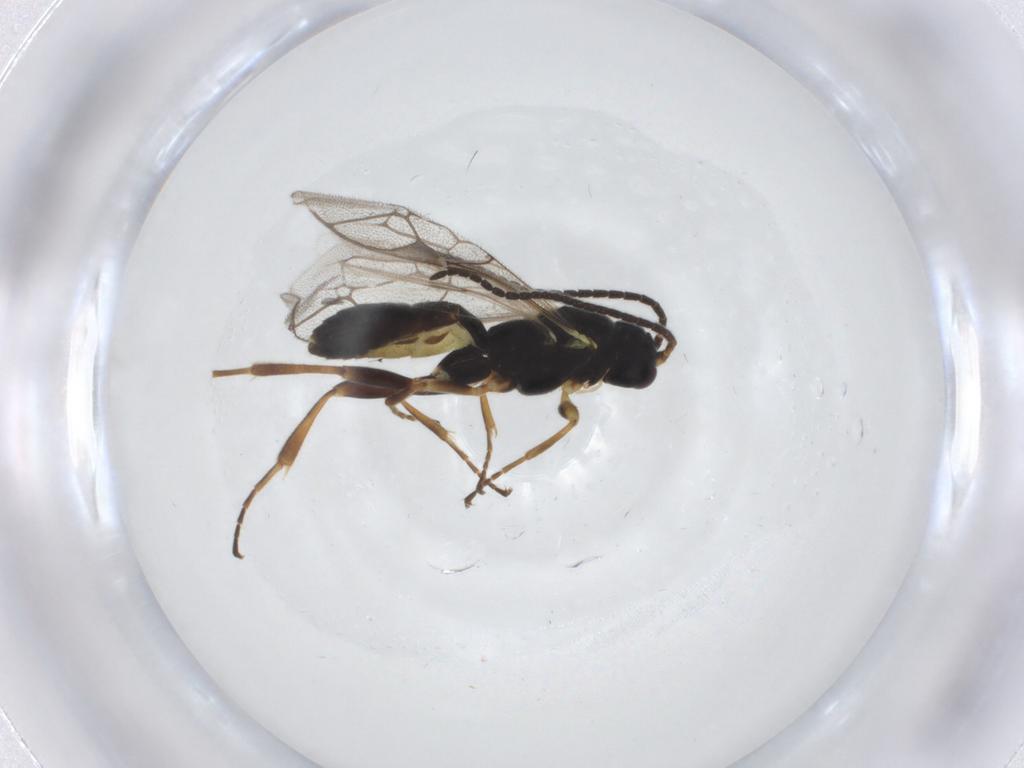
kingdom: Animalia
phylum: Arthropoda
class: Insecta
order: Hymenoptera
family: Ichneumonidae
